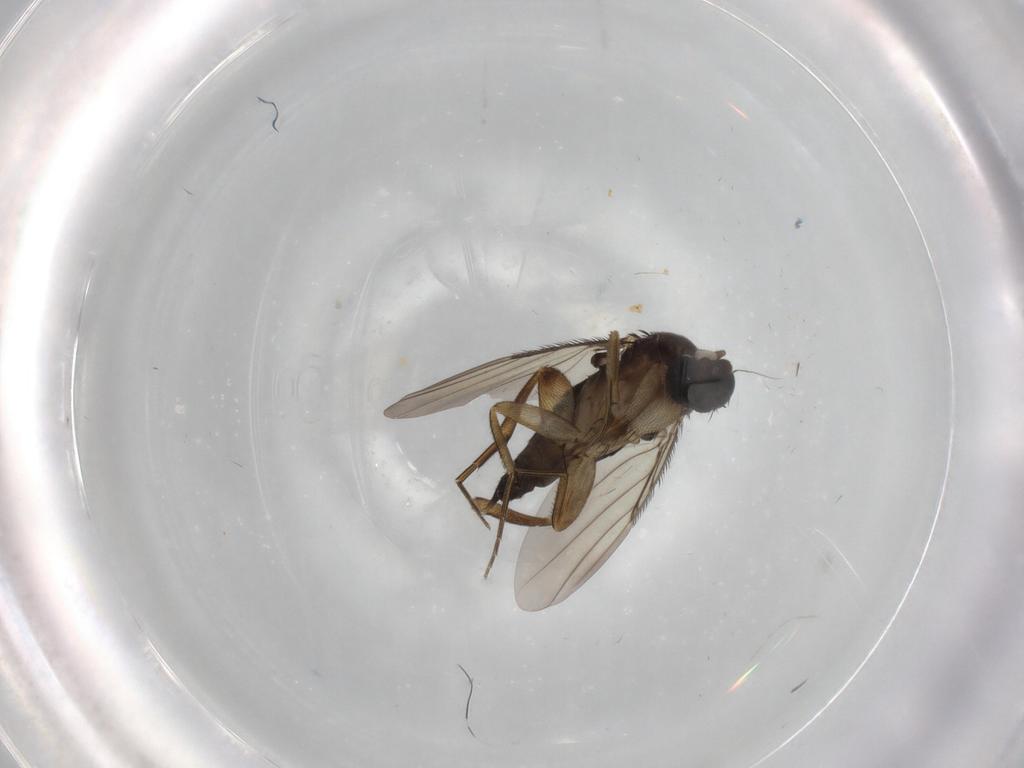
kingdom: Animalia
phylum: Arthropoda
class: Insecta
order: Diptera
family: Phoridae
